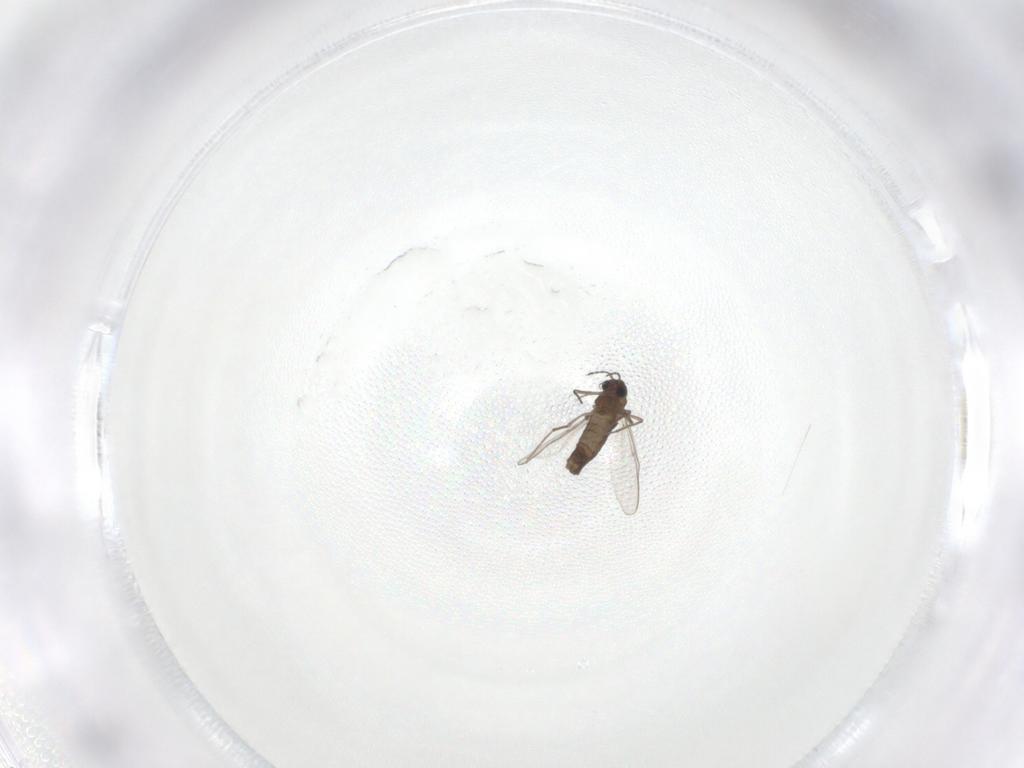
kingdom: Animalia
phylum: Arthropoda
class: Insecta
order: Diptera
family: Chironomidae
